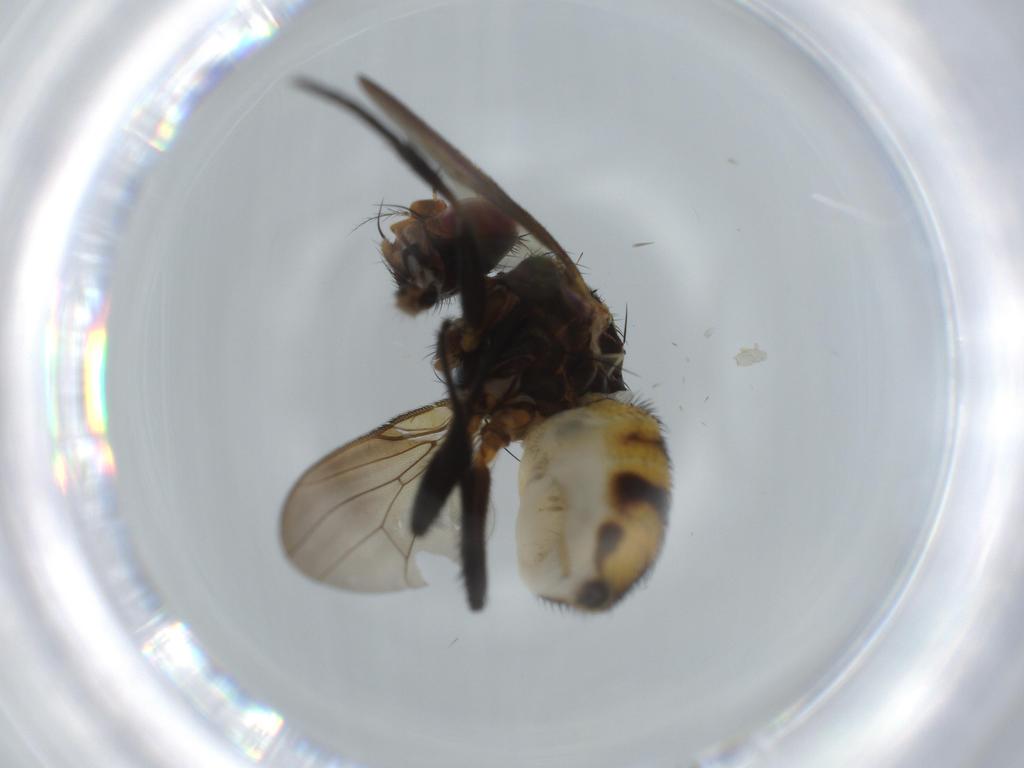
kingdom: Animalia
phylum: Arthropoda
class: Insecta
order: Diptera
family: Anthomyiidae
